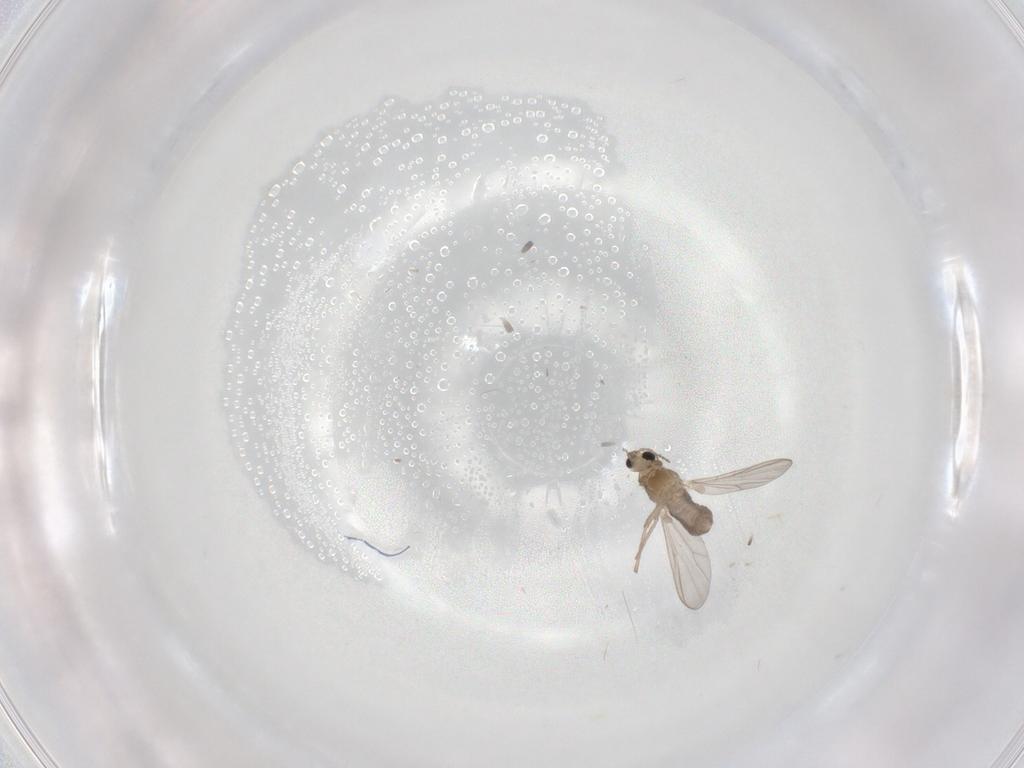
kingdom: Animalia
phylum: Arthropoda
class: Insecta
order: Diptera
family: Chironomidae
